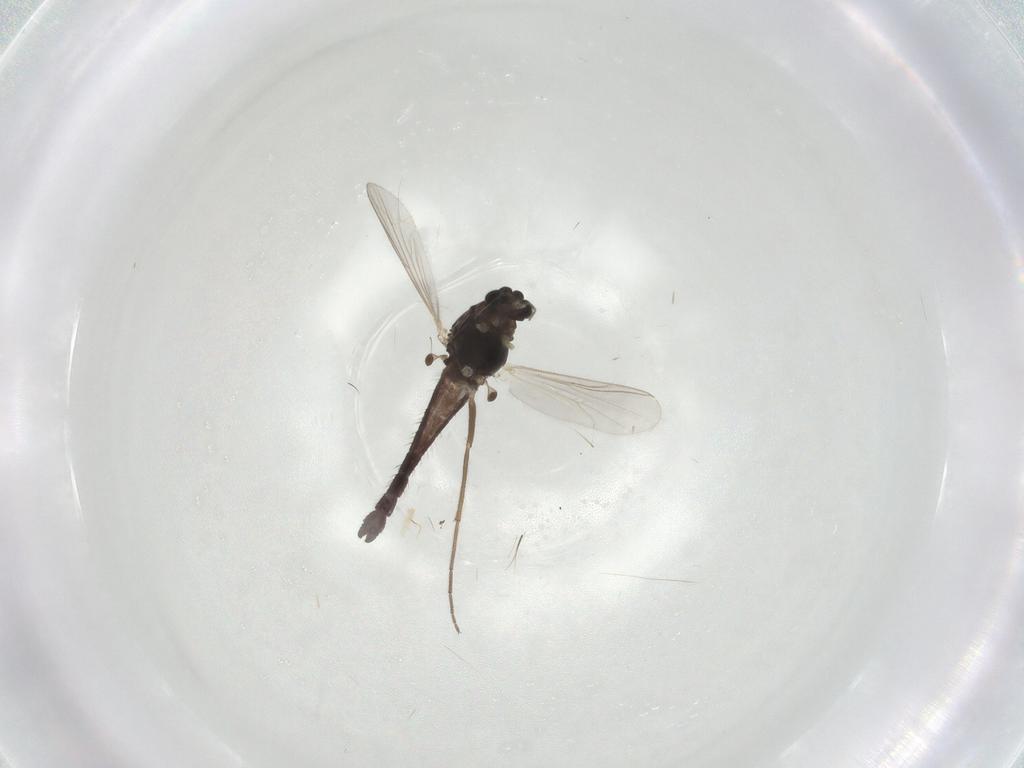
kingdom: Animalia
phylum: Arthropoda
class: Insecta
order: Diptera
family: Chironomidae
